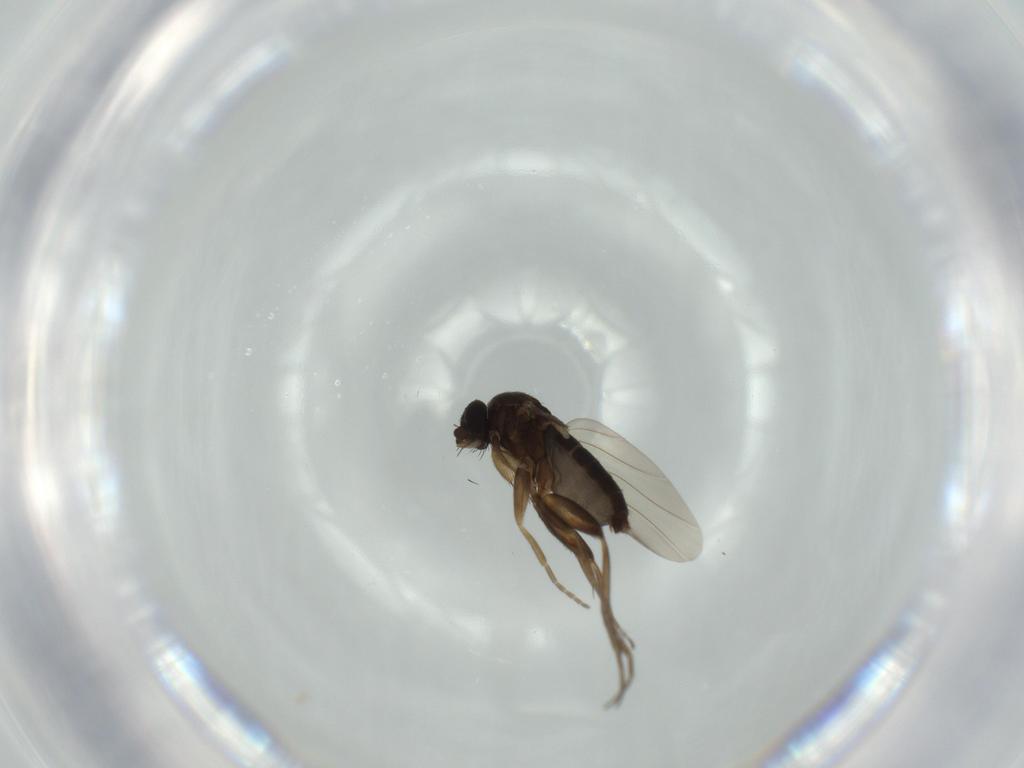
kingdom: Animalia
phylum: Arthropoda
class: Insecta
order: Diptera
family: Phoridae
